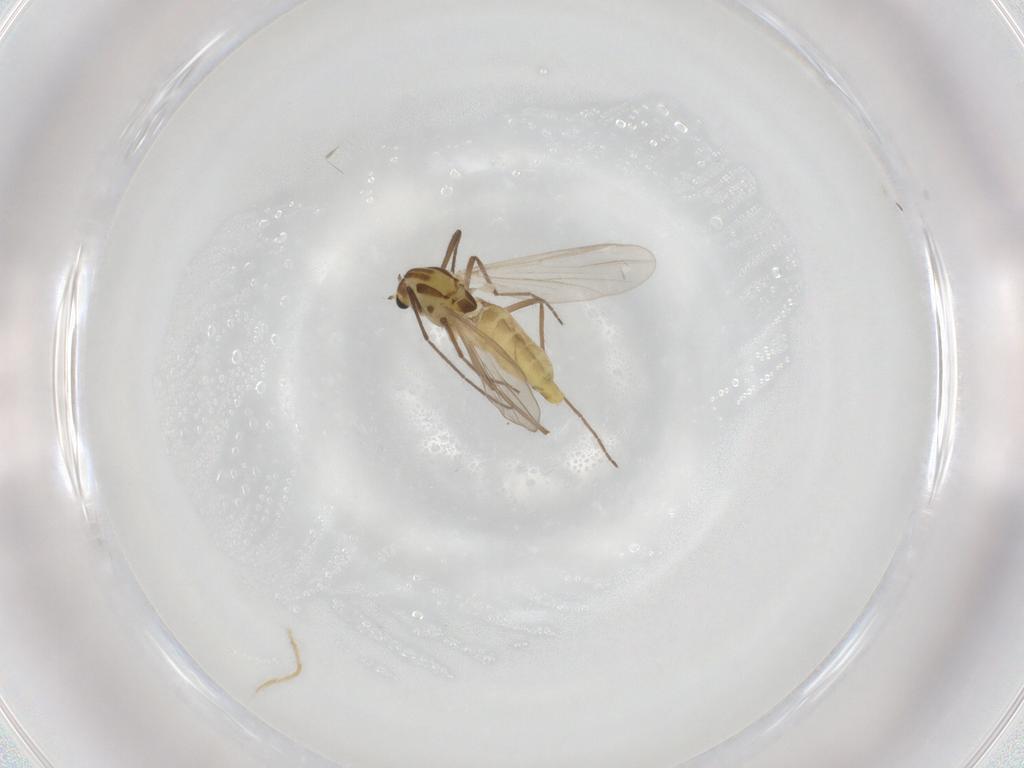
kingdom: Animalia
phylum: Arthropoda
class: Insecta
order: Diptera
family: Chironomidae
